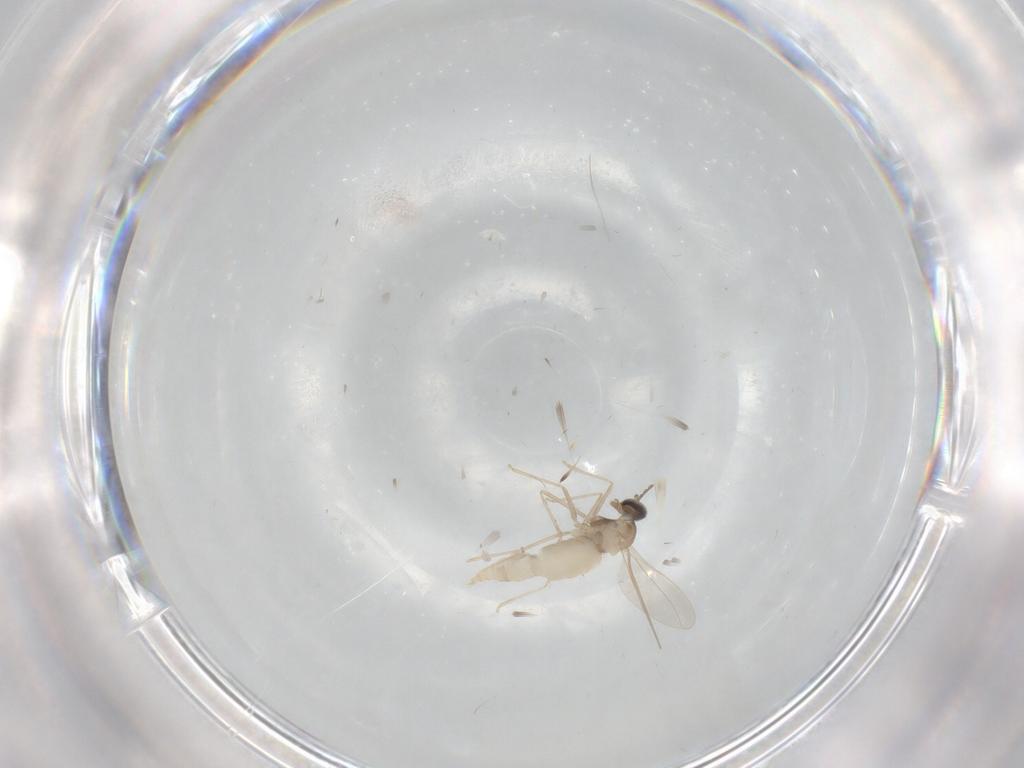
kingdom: Animalia
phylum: Arthropoda
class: Insecta
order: Diptera
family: Cecidomyiidae
